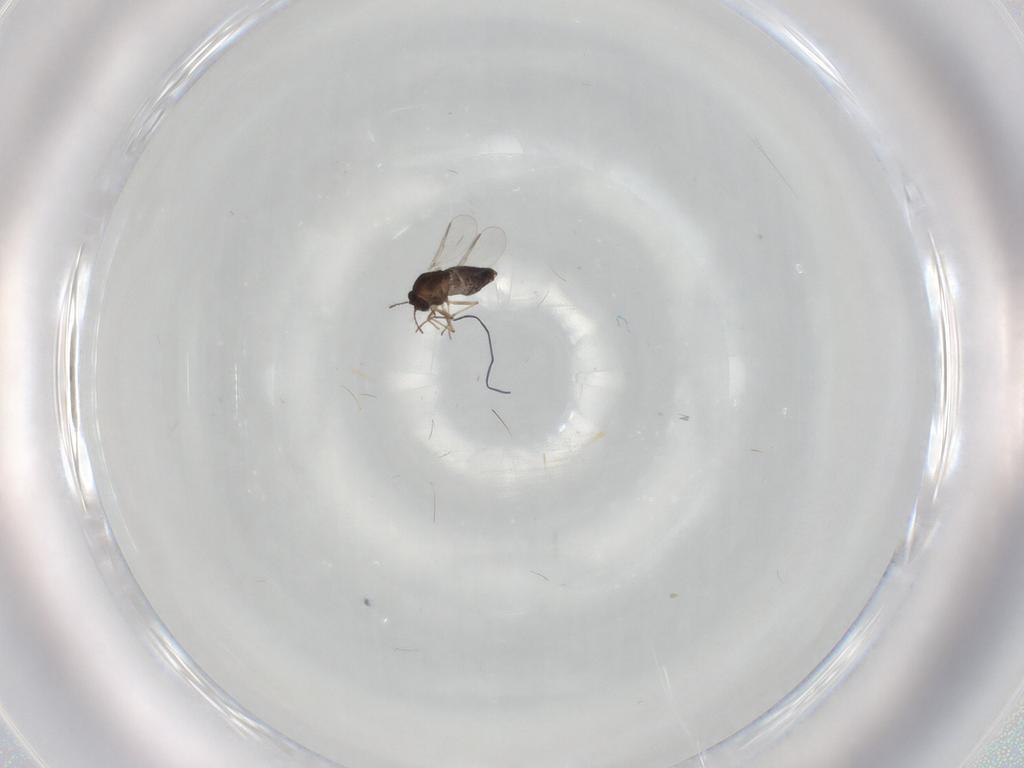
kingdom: Animalia
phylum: Arthropoda
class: Insecta
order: Diptera
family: Chironomidae
